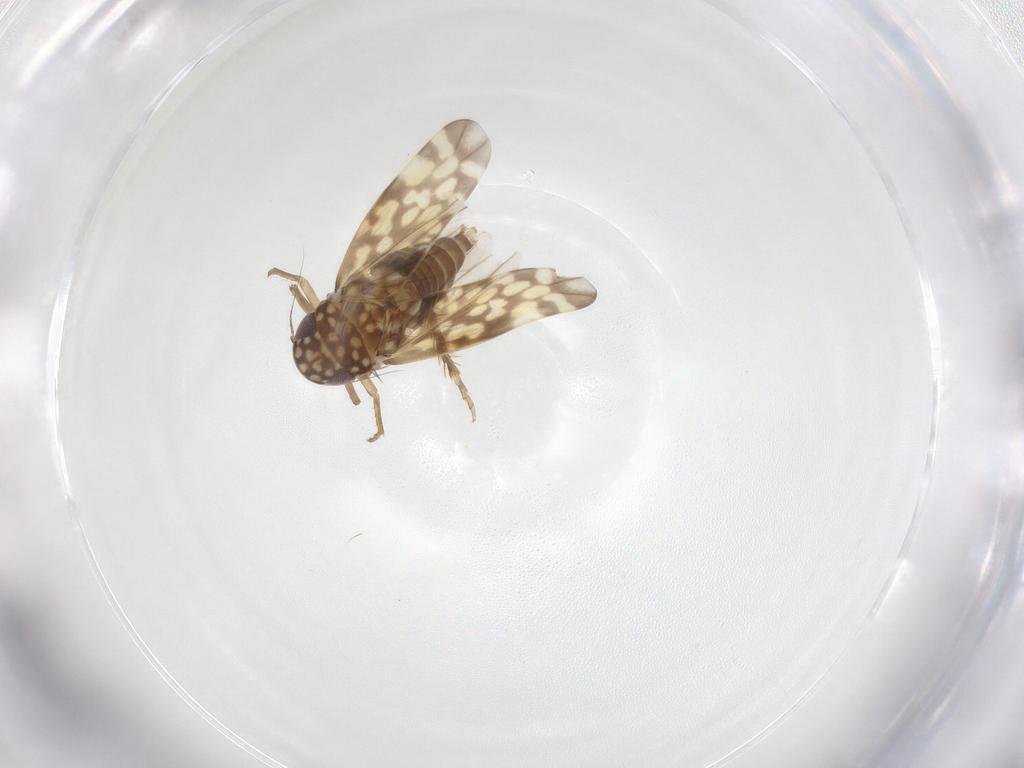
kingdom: Animalia
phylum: Arthropoda
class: Insecta
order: Hemiptera
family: Cicadellidae
